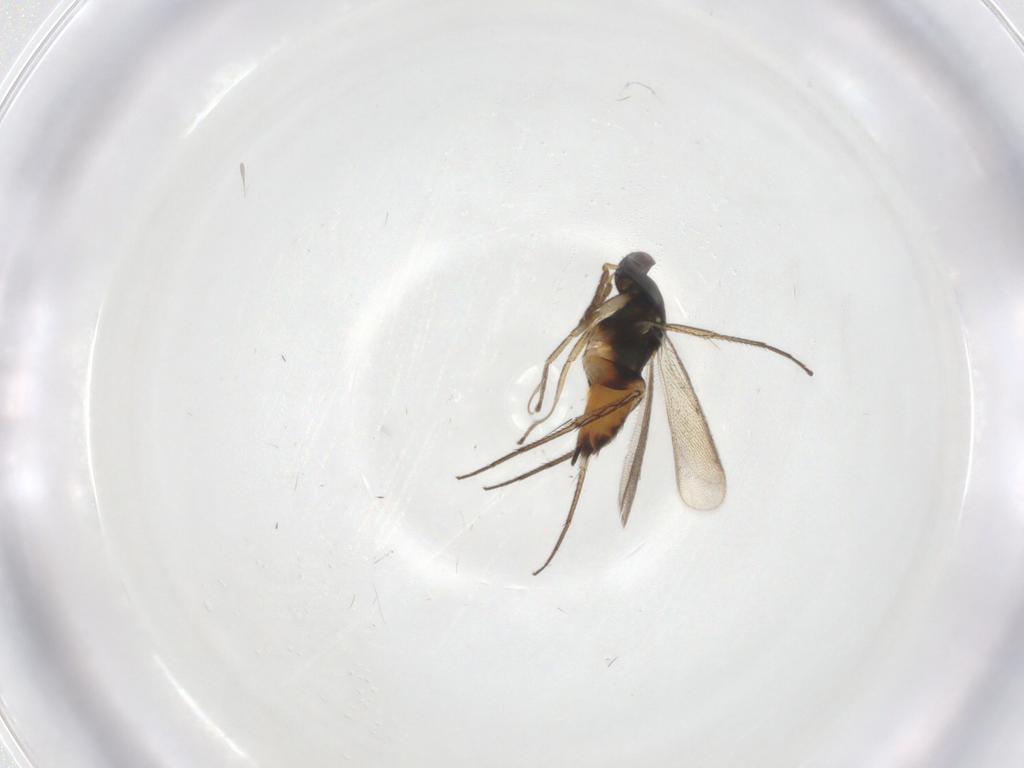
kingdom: Animalia
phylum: Arthropoda
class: Insecta
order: Hymenoptera
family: Eulophidae
